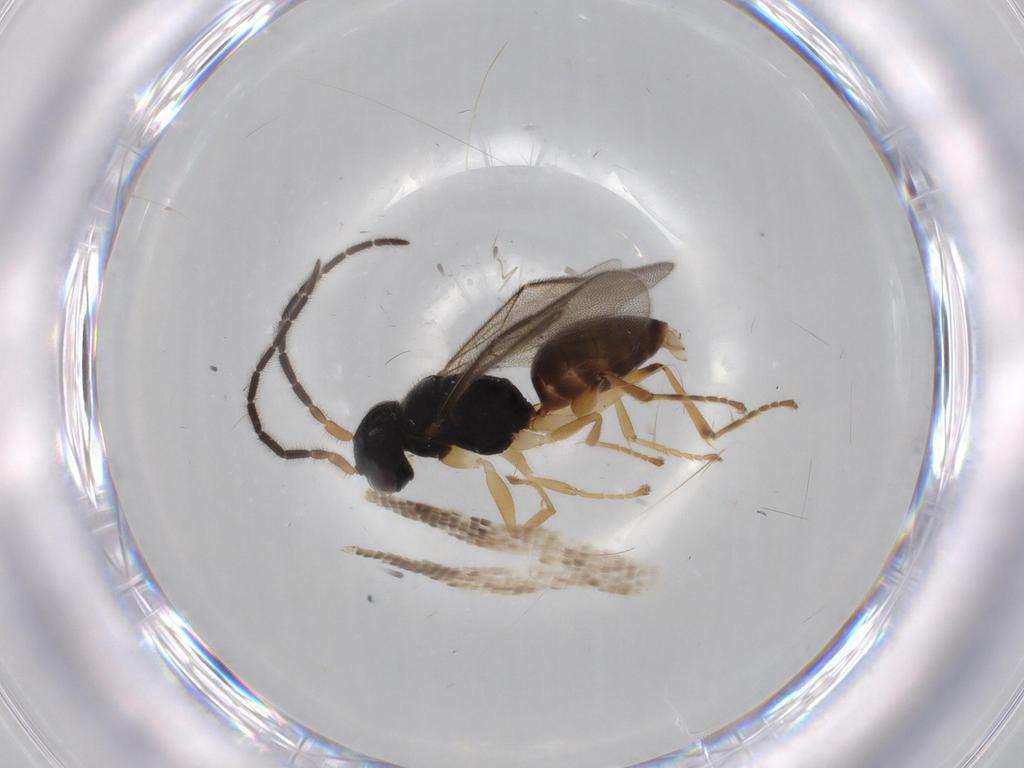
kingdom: Animalia
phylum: Arthropoda
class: Insecta
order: Hymenoptera
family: Dryinidae
